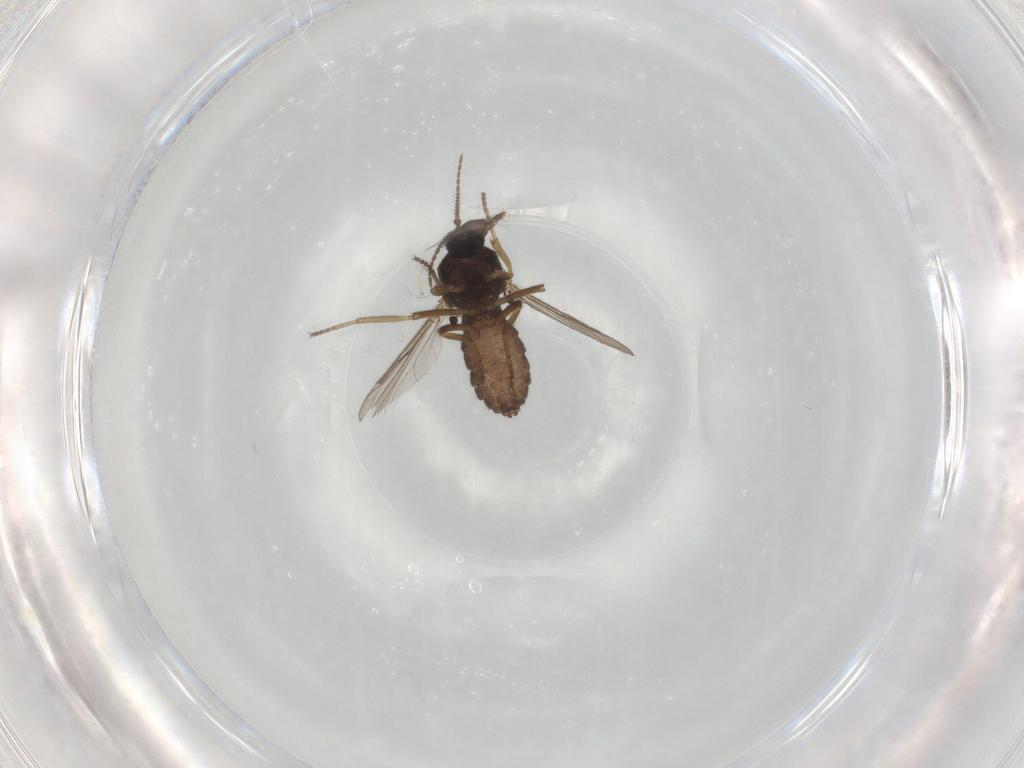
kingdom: Animalia
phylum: Arthropoda
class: Insecta
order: Diptera
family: Ceratopogonidae
